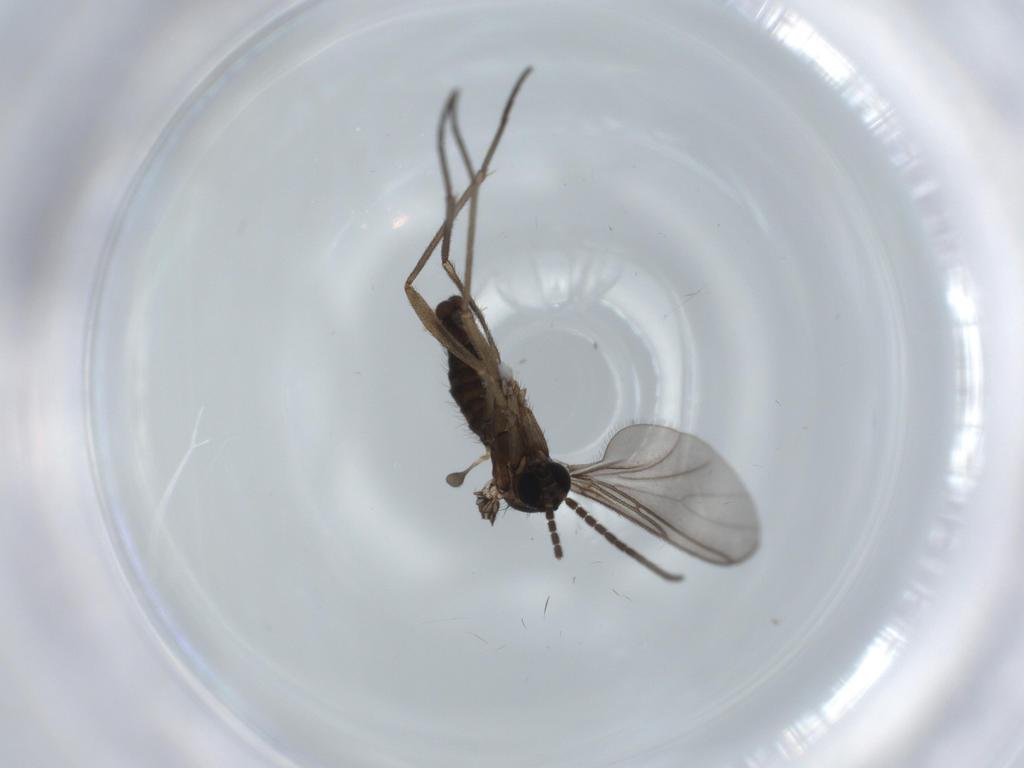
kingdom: Animalia
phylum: Arthropoda
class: Insecta
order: Diptera
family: Sciaridae
